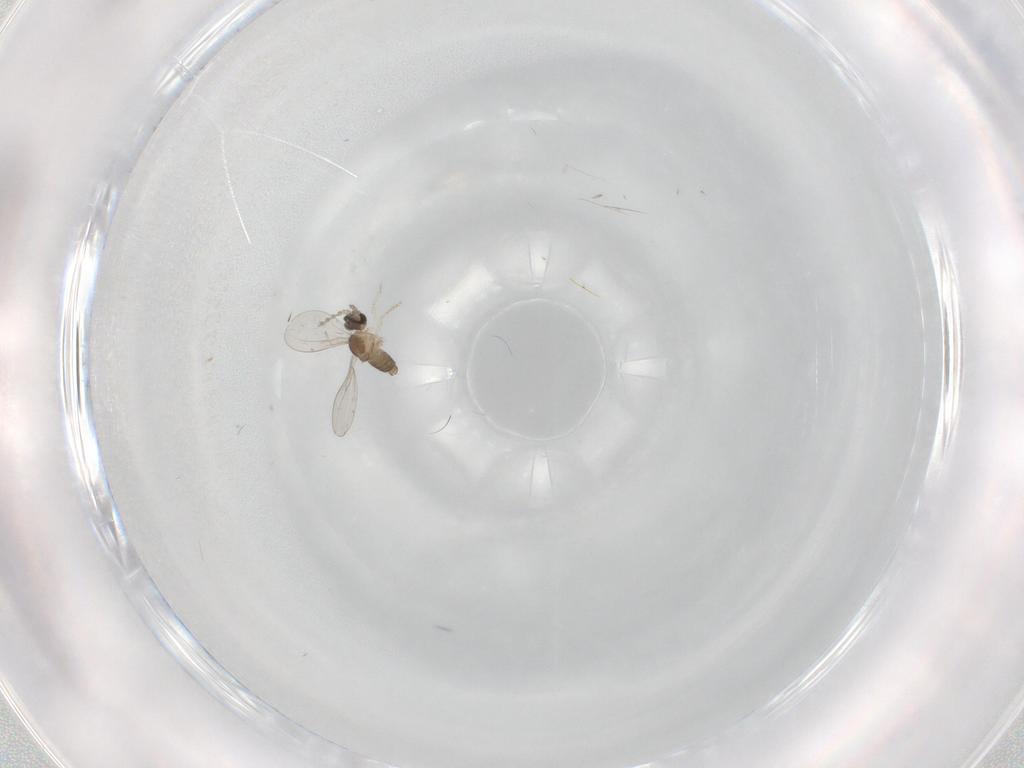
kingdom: Animalia
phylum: Arthropoda
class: Insecta
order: Diptera
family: Cecidomyiidae
